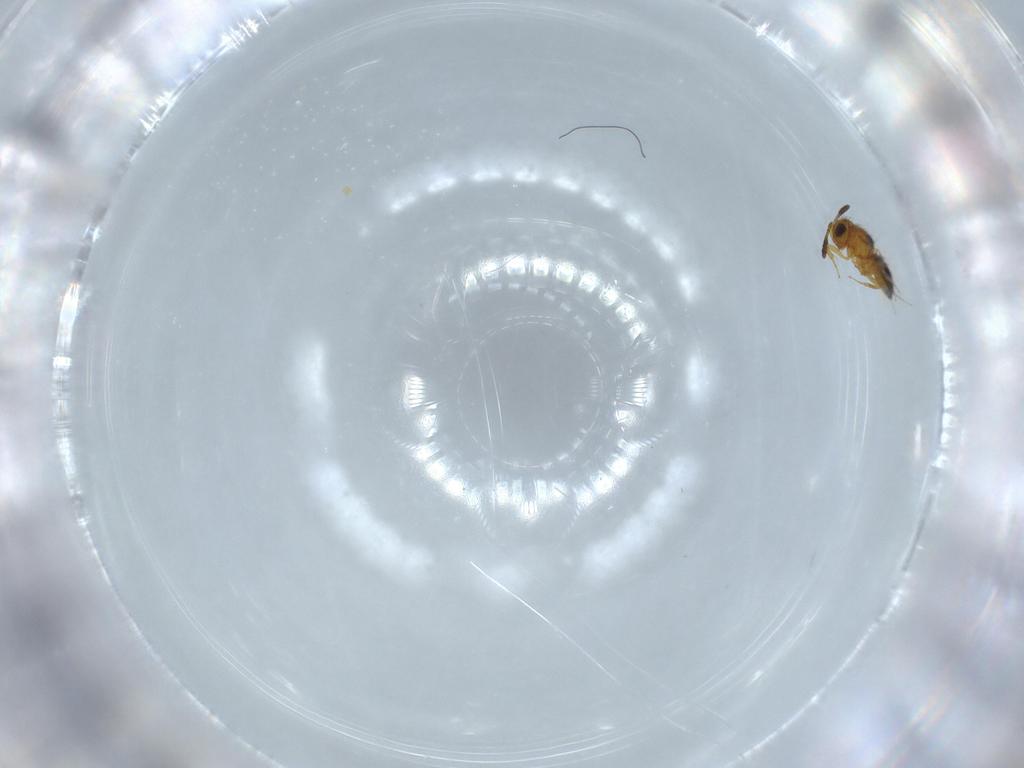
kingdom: Animalia
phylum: Arthropoda
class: Insecta
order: Hymenoptera
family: Scelionidae
